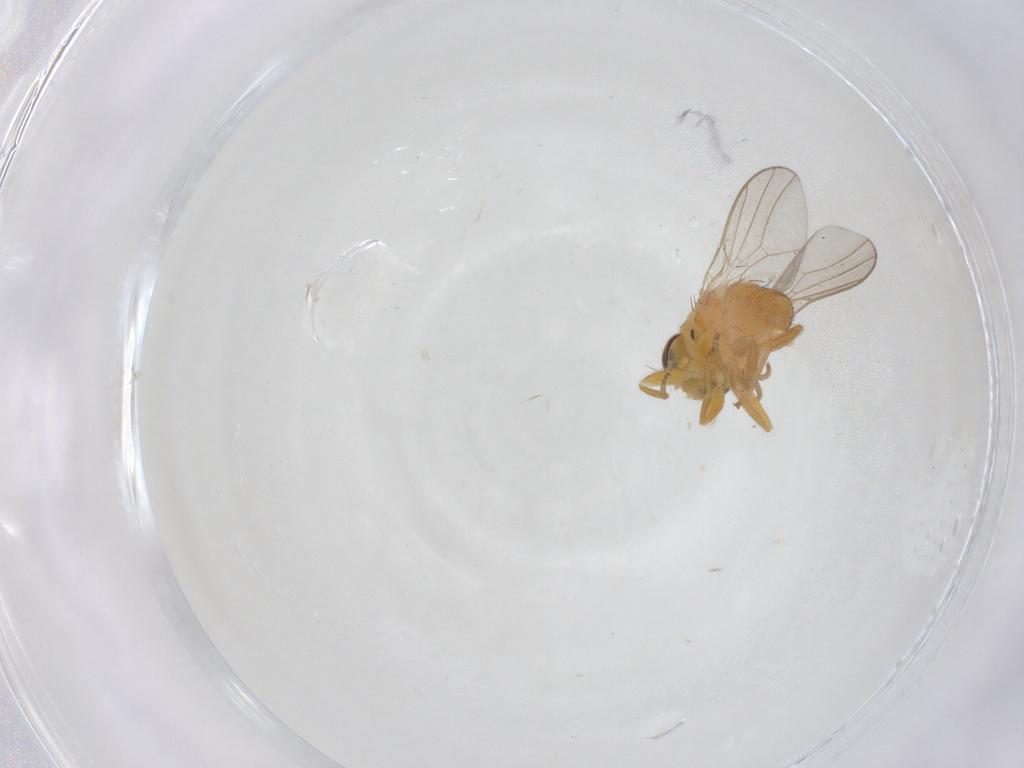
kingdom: Animalia
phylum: Arthropoda
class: Insecta
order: Diptera
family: Chloropidae
